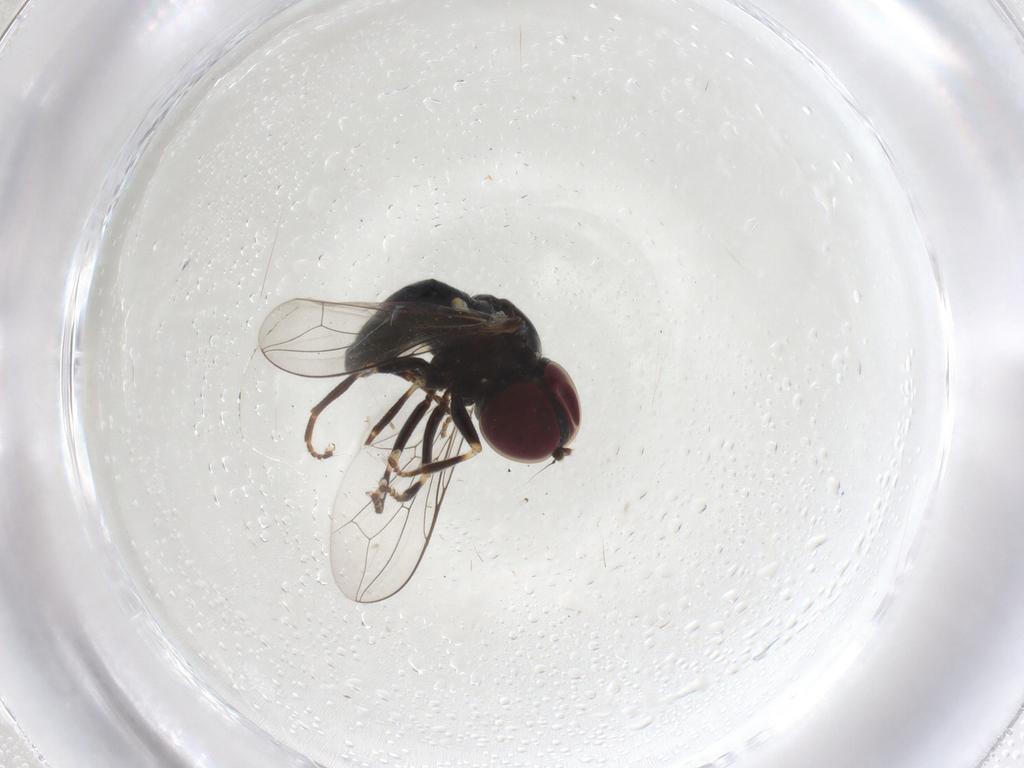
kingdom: Animalia
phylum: Arthropoda
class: Insecta
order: Diptera
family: Pipunculidae
